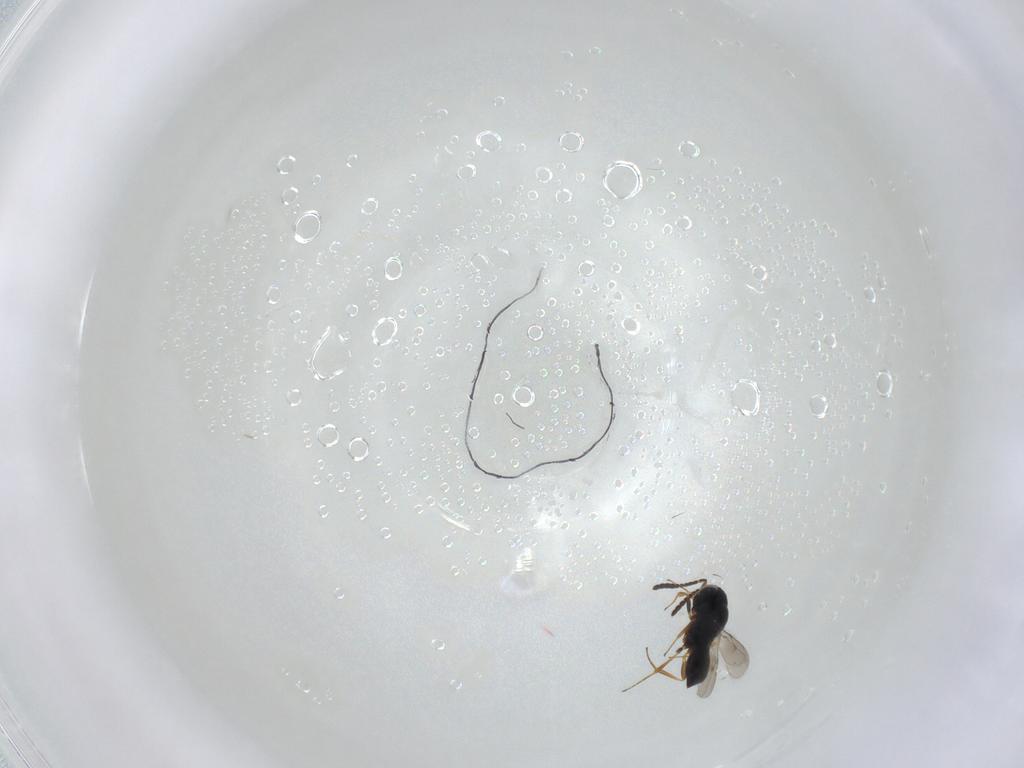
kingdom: Animalia
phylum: Arthropoda
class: Insecta
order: Hymenoptera
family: Scelionidae
